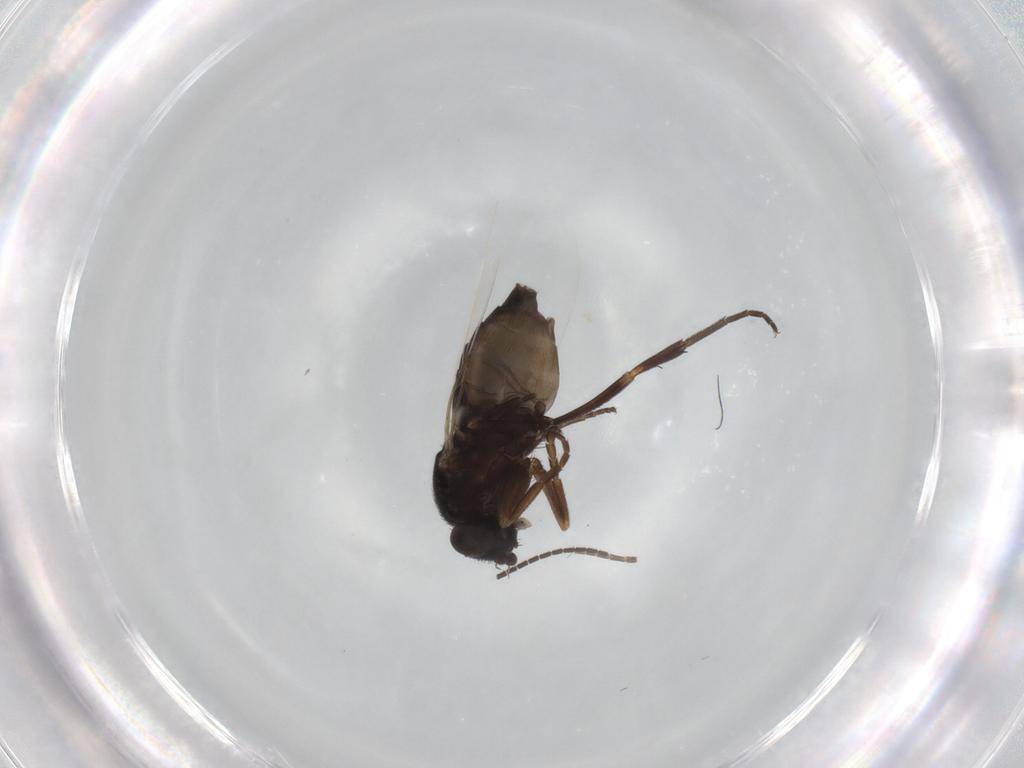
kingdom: Animalia
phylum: Arthropoda
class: Insecta
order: Diptera
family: Phoridae
